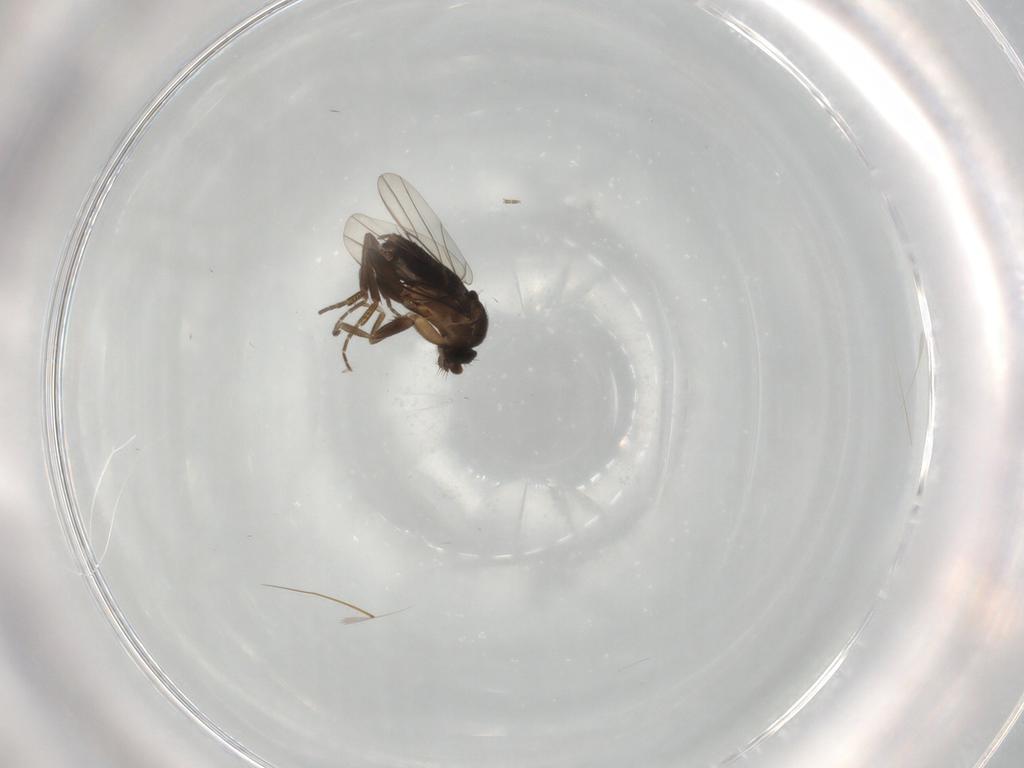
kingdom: Animalia
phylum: Arthropoda
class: Insecta
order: Diptera
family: Phoridae
